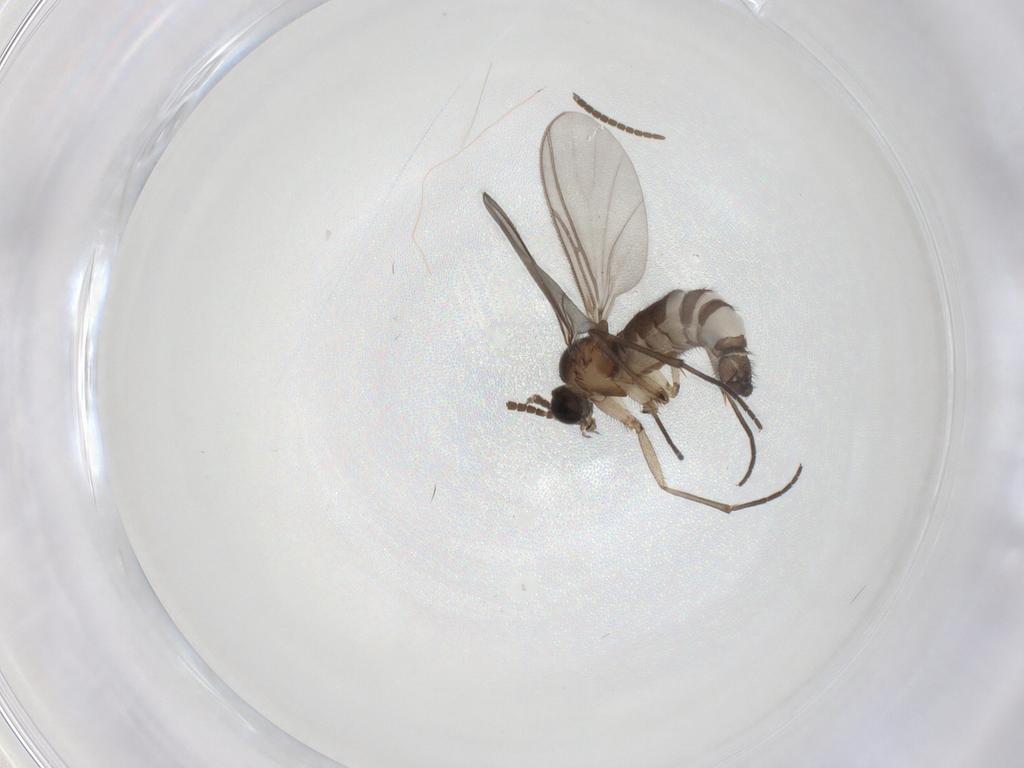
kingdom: Animalia
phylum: Arthropoda
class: Insecta
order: Diptera
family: Chironomidae
